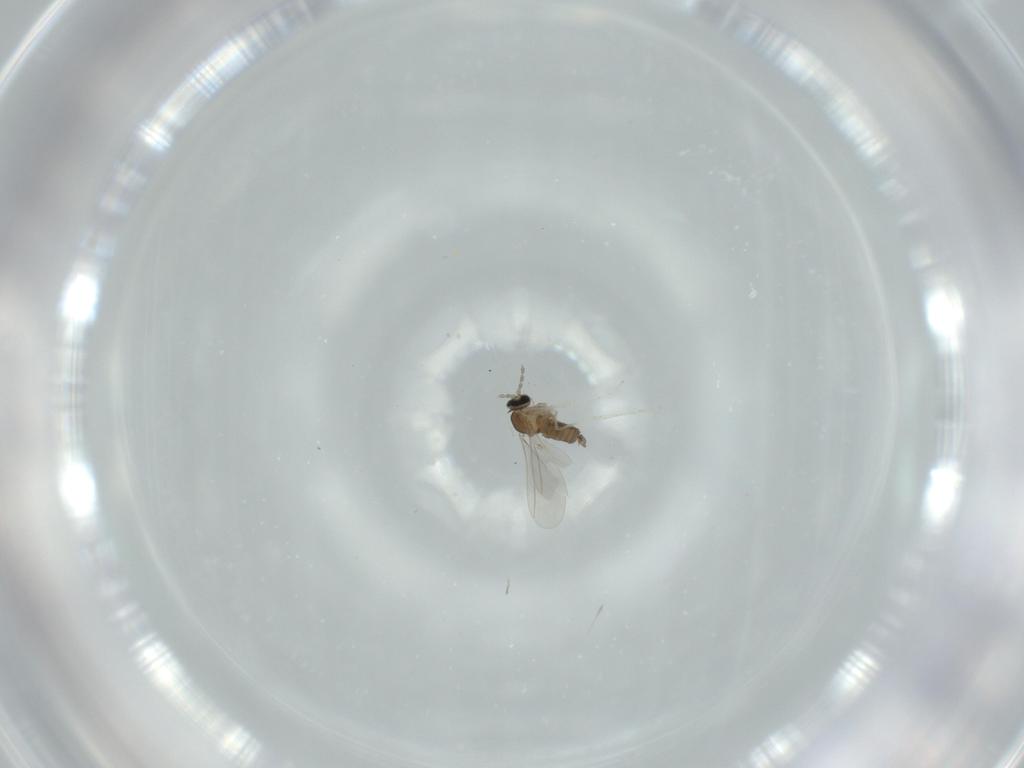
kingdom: Animalia
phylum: Arthropoda
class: Insecta
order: Diptera
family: Cecidomyiidae
